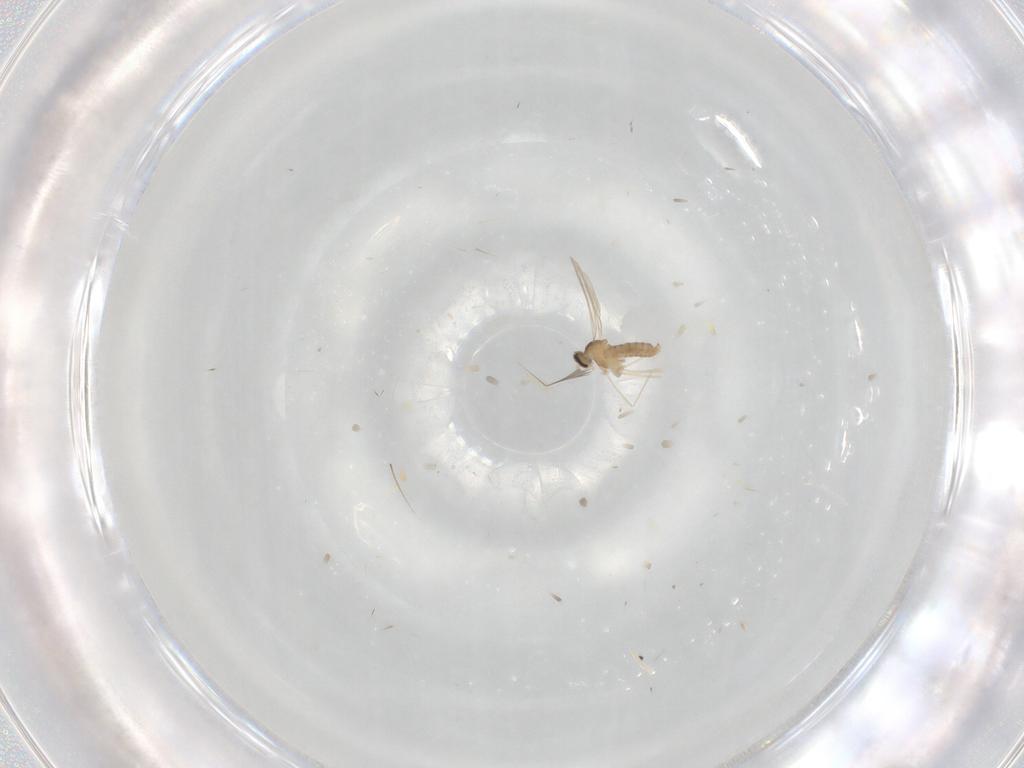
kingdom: Animalia
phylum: Arthropoda
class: Insecta
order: Diptera
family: Cecidomyiidae
